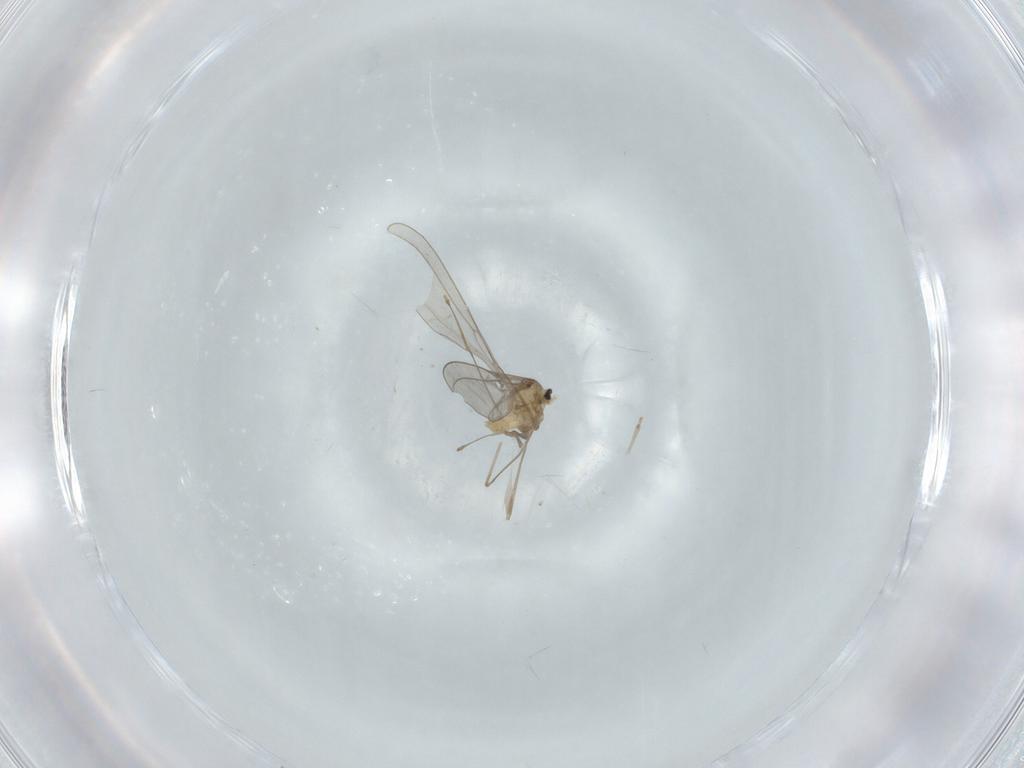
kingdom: Animalia
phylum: Arthropoda
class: Insecta
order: Diptera
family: Cecidomyiidae
